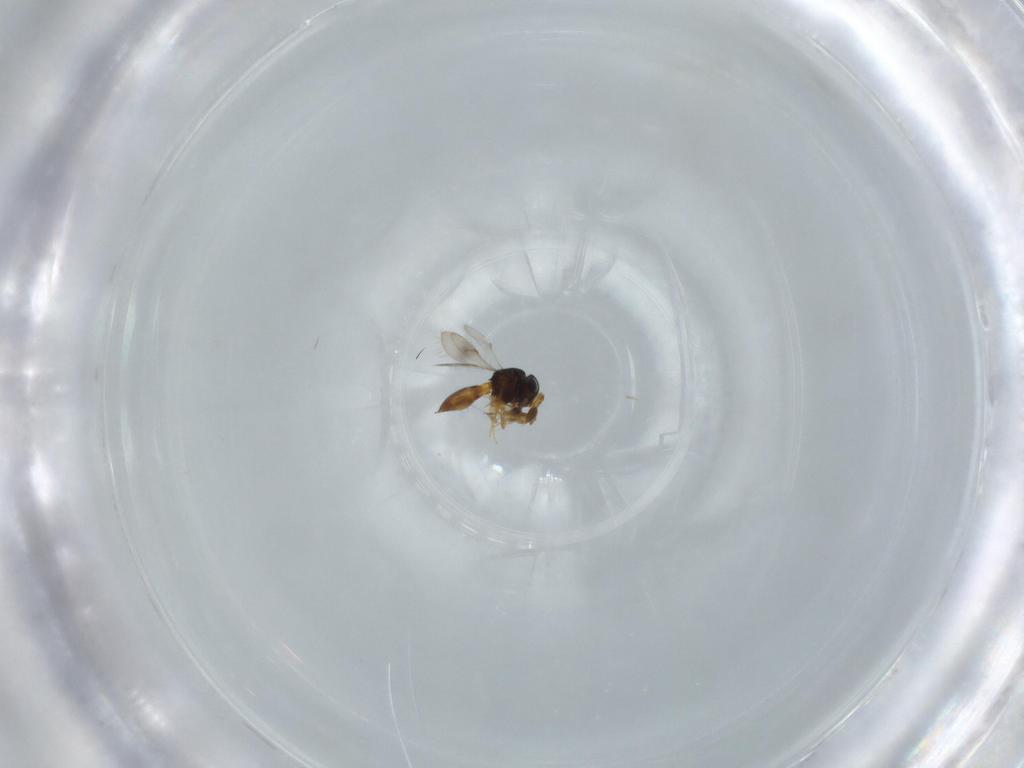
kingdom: Animalia
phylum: Arthropoda
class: Insecta
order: Hymenoptera
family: Scelionidae
